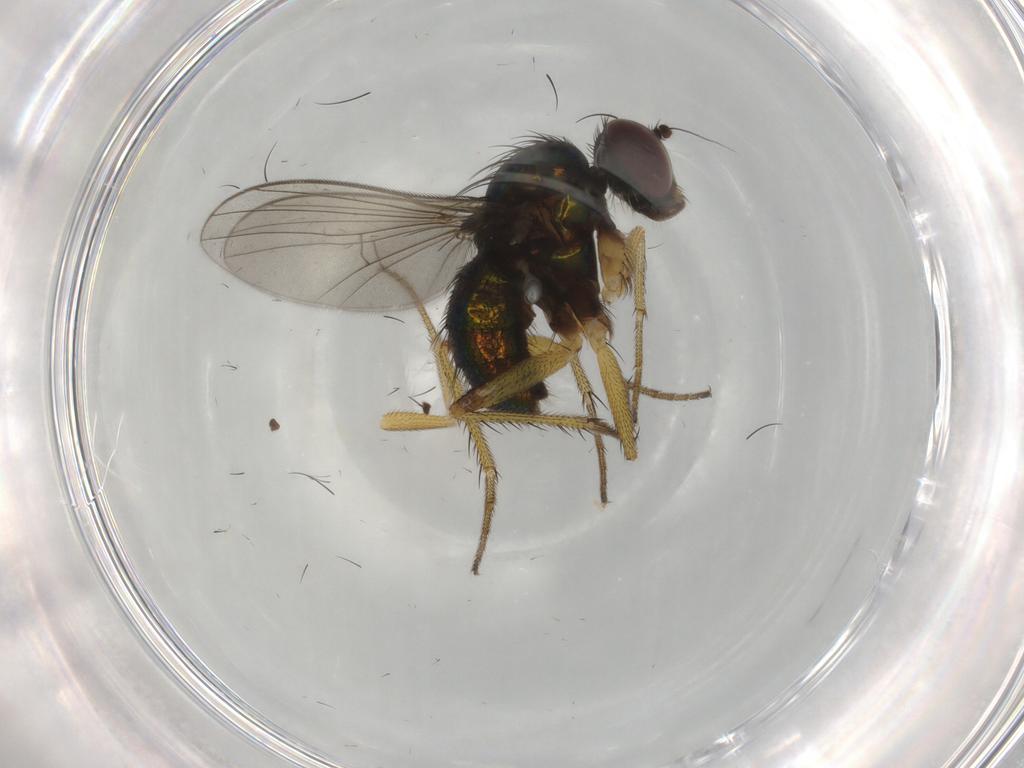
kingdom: Animalia
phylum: Arthropoda
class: Insecta
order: Diptera
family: Dolichopodidae
